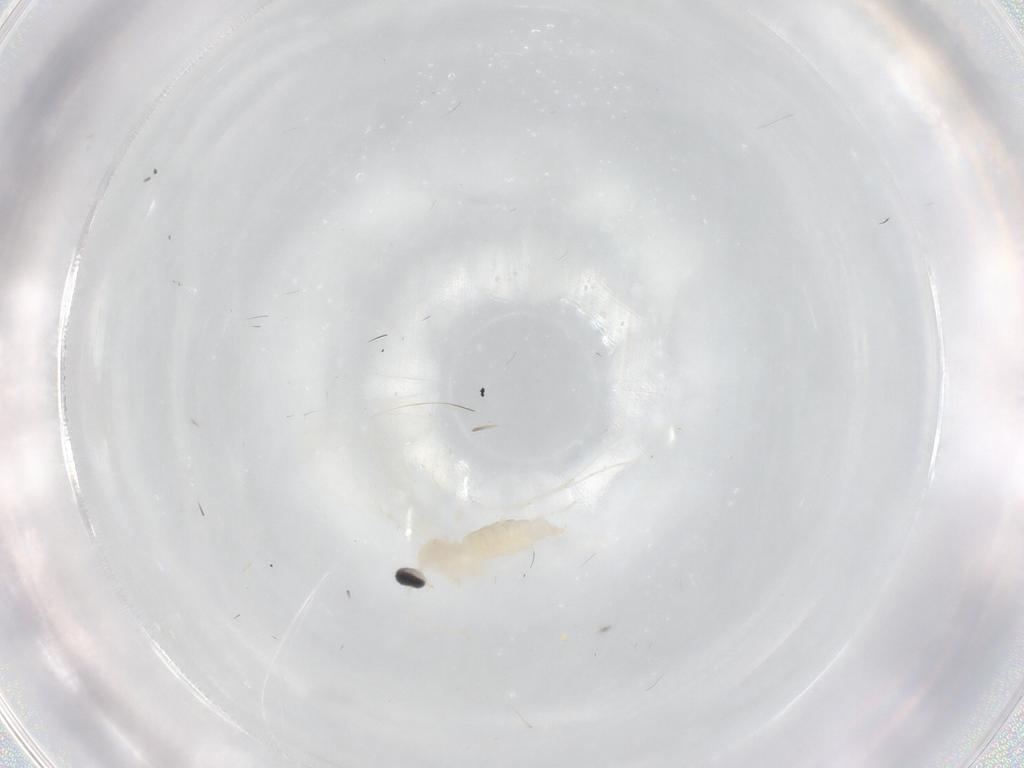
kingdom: Animalia
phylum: Arthropoda
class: Insecta
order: Diptera
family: Cecidomyiidae
